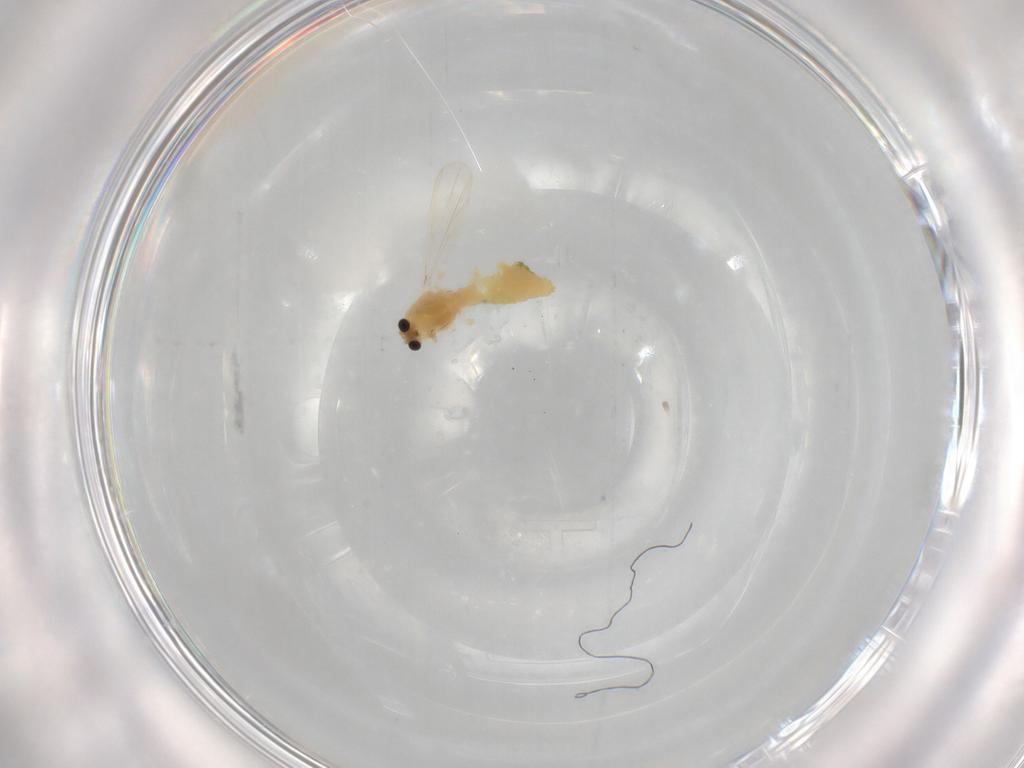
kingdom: Animalia
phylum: Arthropoda
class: Insecta
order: Diptera
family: Chironomidae
